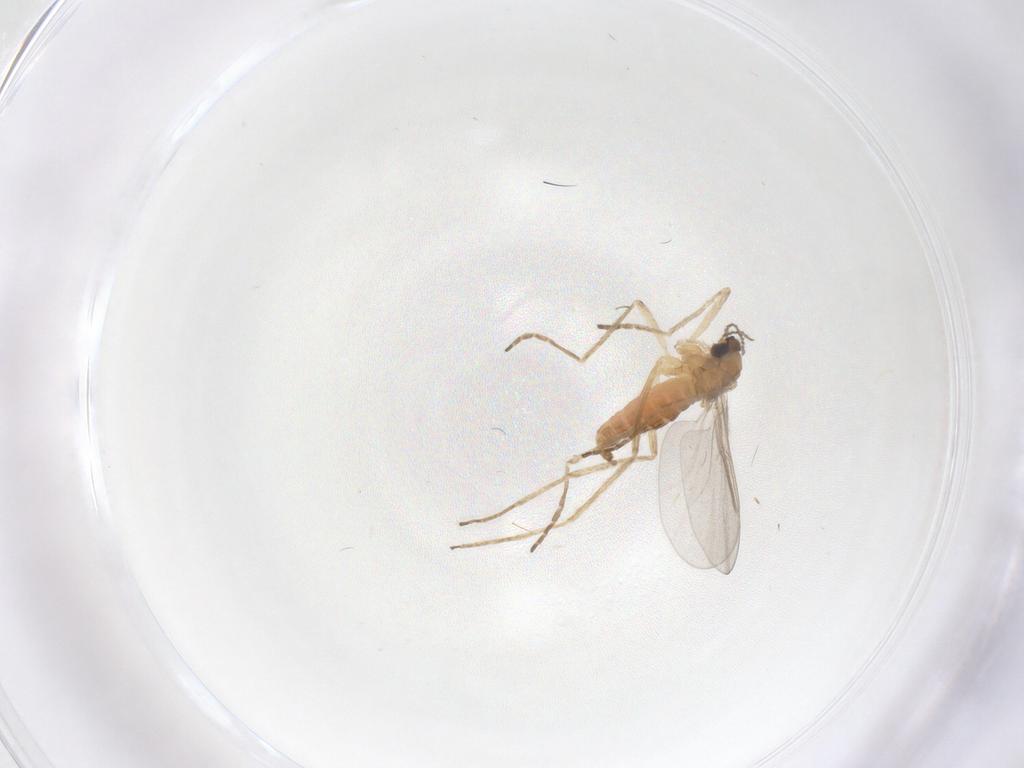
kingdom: Animalia
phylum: Arthropoda
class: Insecta
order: Diptera
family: Cecidomyiidae
